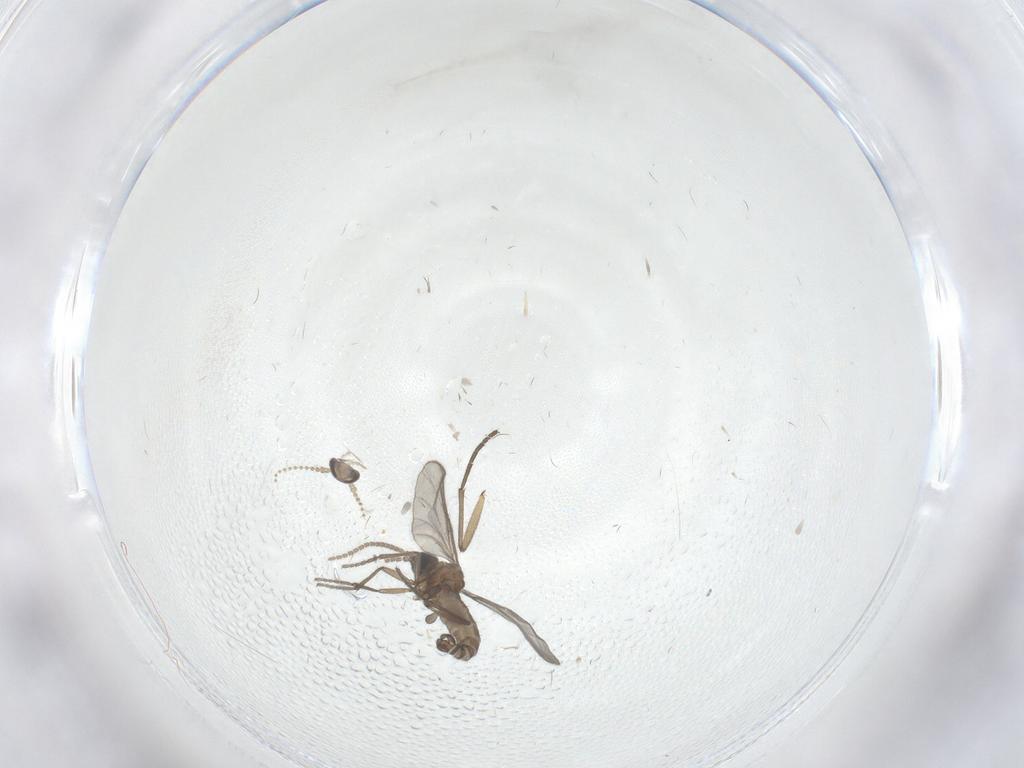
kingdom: Animalia
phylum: Arthropoda
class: Insecta
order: Diptera
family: Sciaridae
